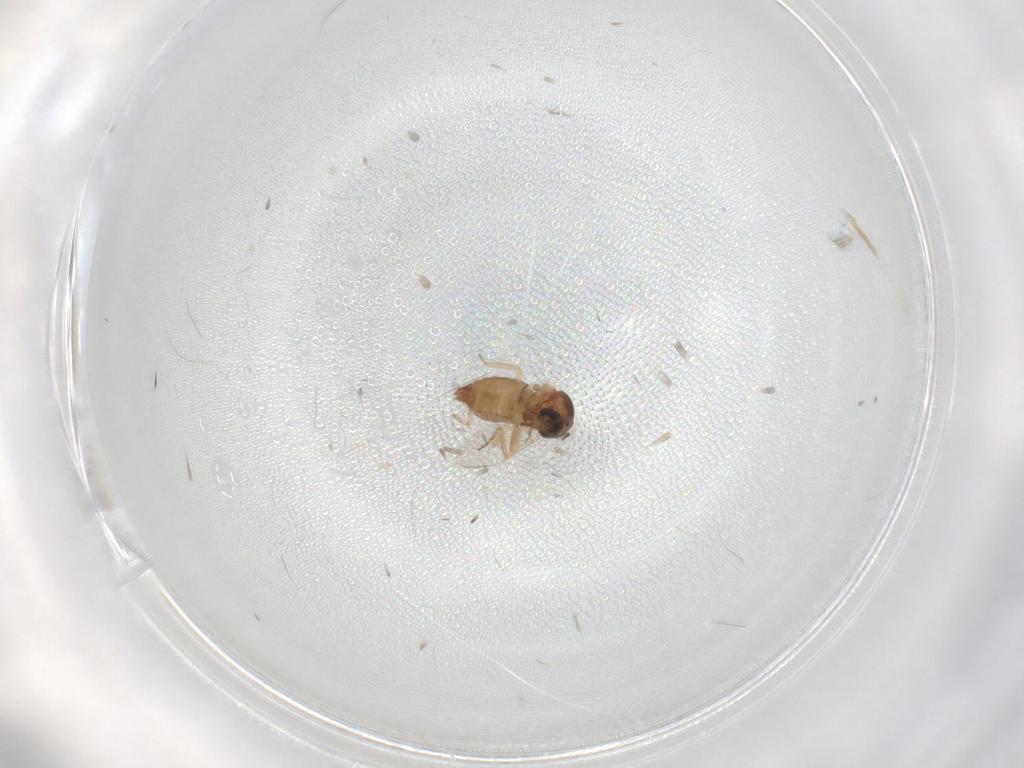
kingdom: Animalia
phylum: Arthropoda
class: Insecta
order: Diptera
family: Ceratopogonidae
